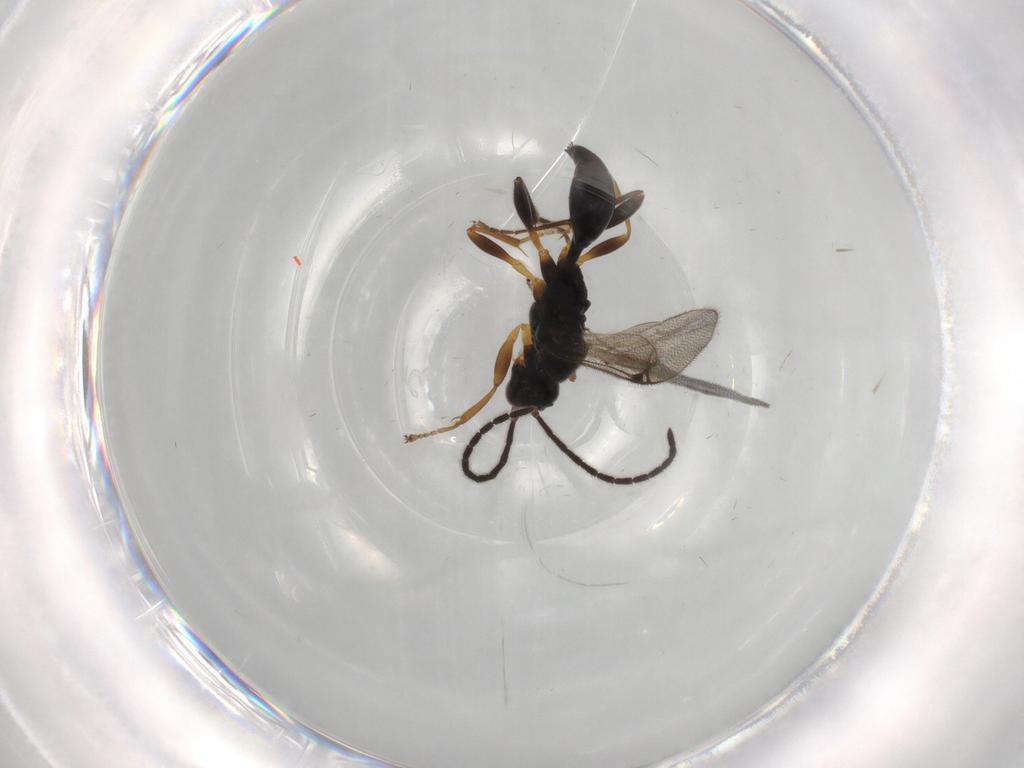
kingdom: Animalia
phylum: Arthropoda
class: Insecta
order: Hymenoptera
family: Proctotrupidae
